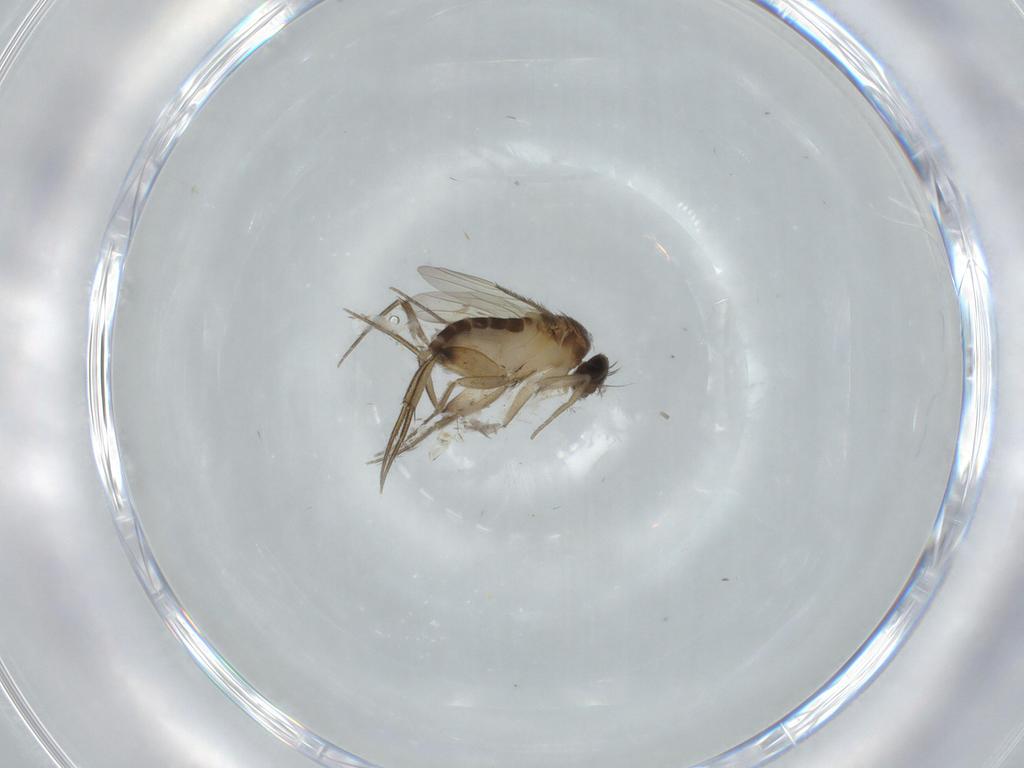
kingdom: Animalia
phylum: Arthropoda
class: Insecta
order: Diptera
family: Phoridae
